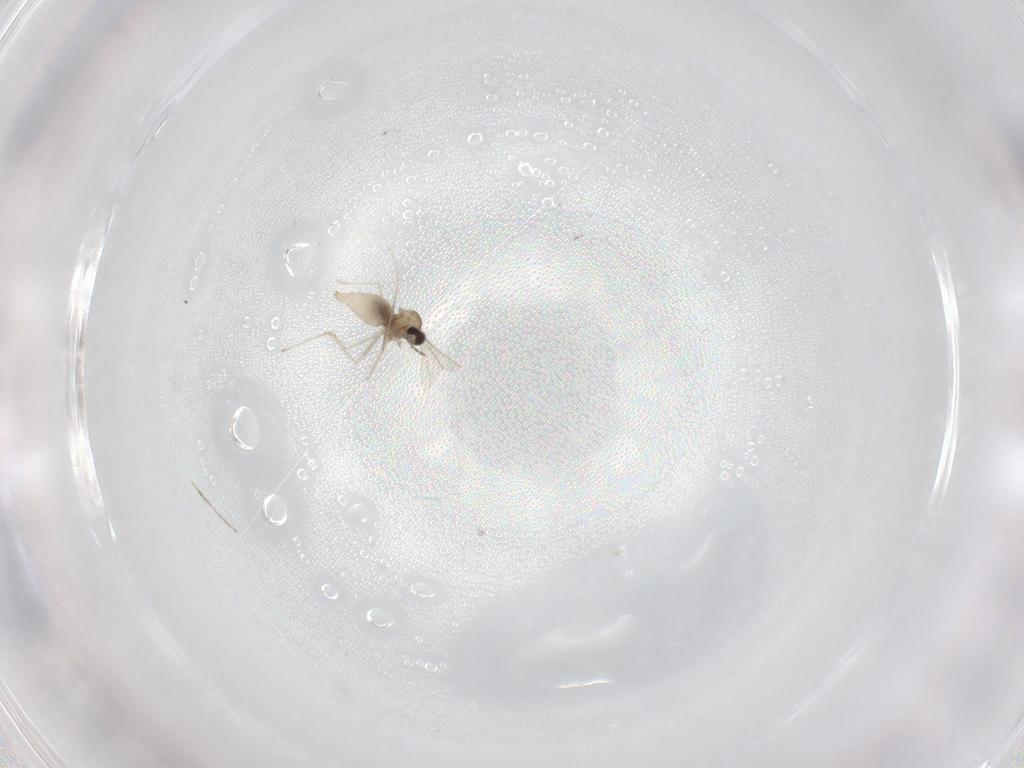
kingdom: Animalia
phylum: Arthropoda
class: Insecta
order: Diptera
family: Cecidomyiidae
